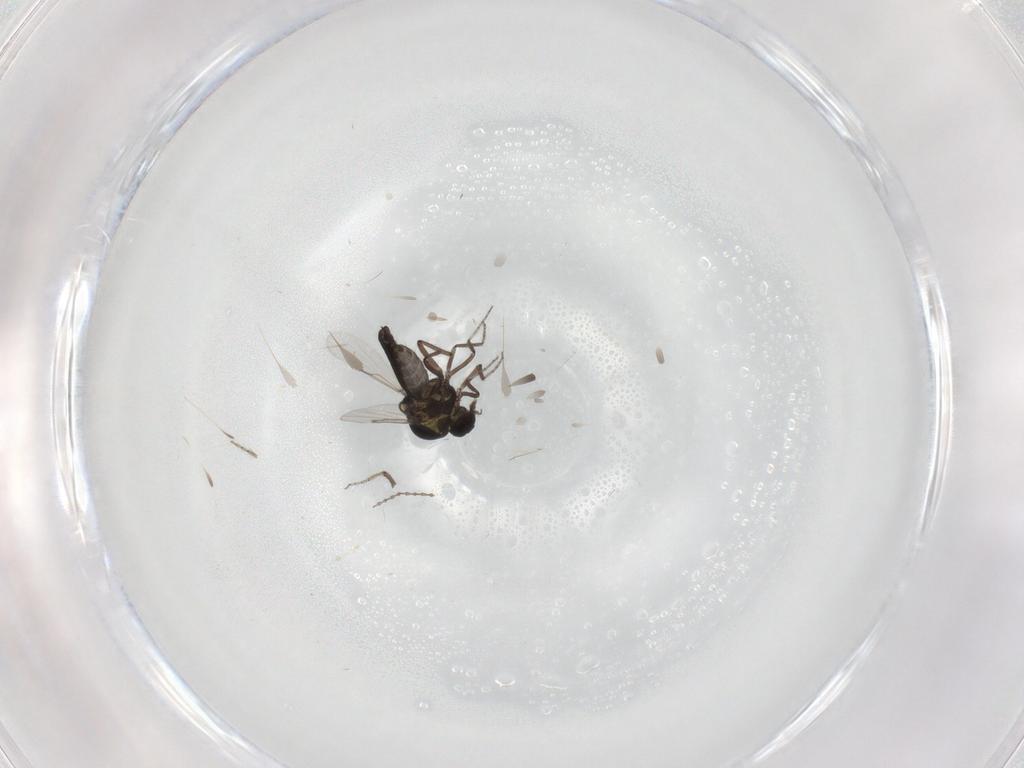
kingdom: Animalia
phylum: Arthropoda
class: Insecta
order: Diptera
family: Ceratopogonidae
